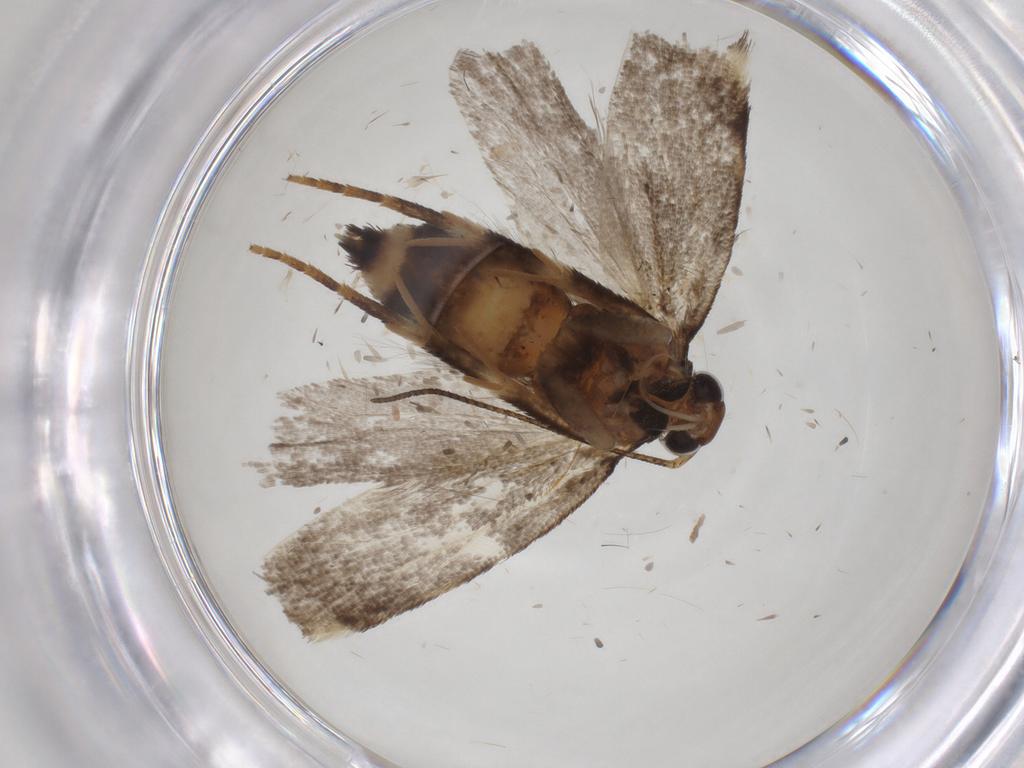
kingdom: Animalia
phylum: Arthropoda
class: Insecta
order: Lepidoptera
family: Gelechiidae
